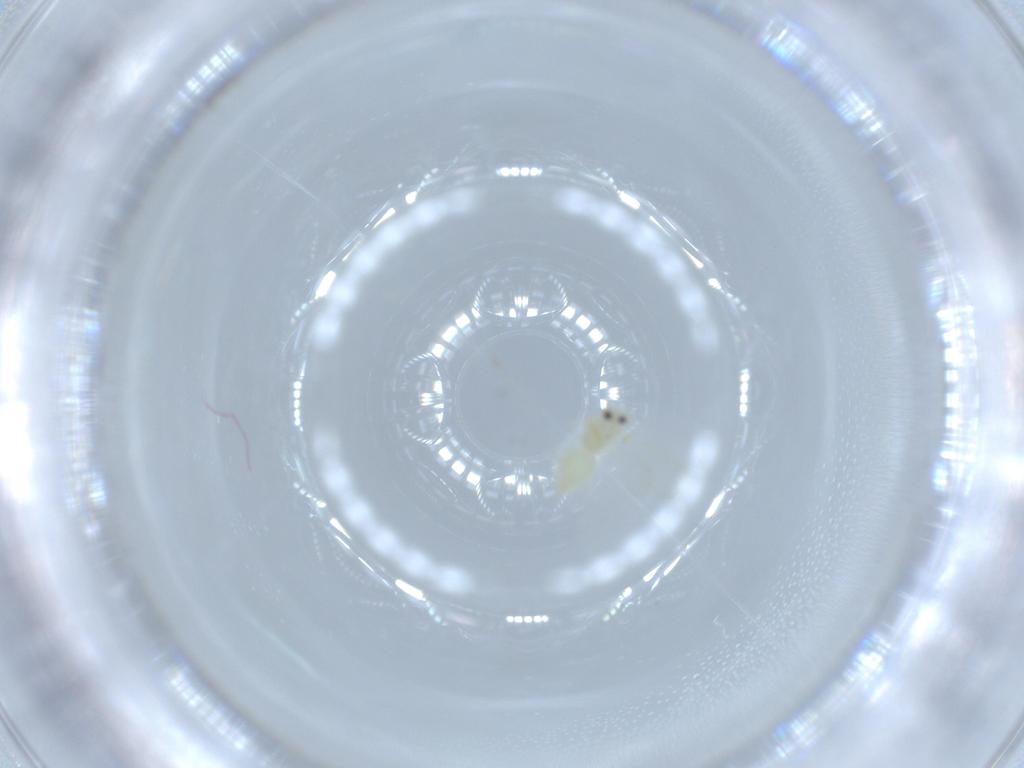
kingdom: Animalia
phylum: Arthropoda
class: Insecta
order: Hemiptera
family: Aleyrodidae
